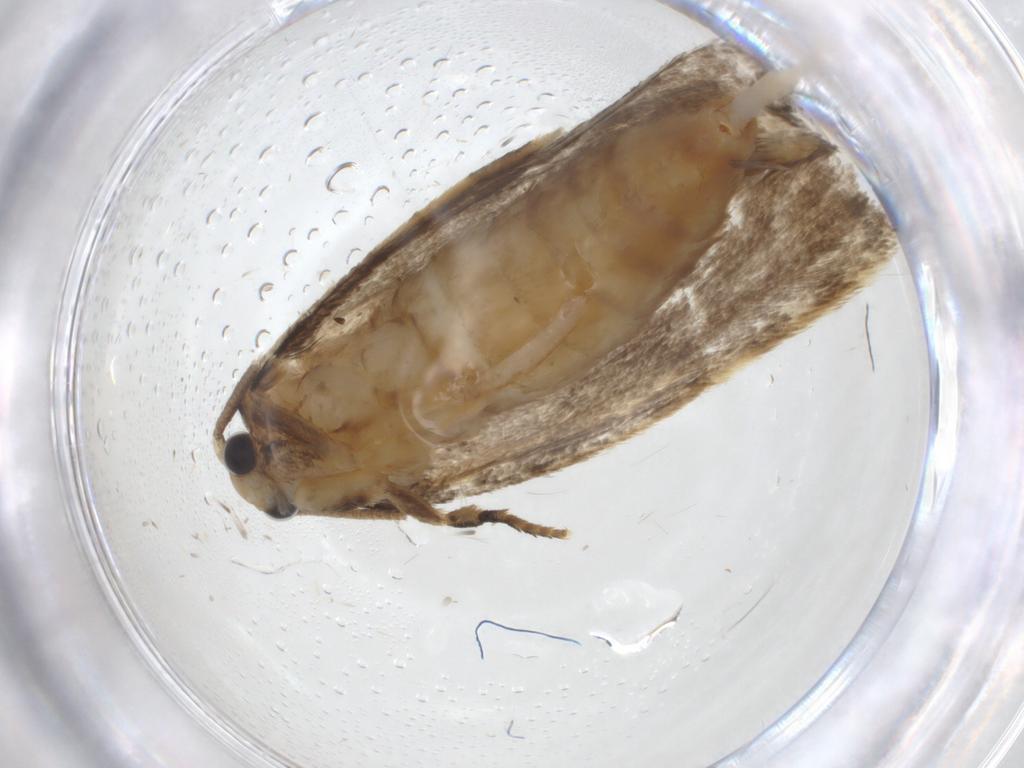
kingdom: Animalia
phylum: Arthropoda
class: Insecta
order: Lepidoptera
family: Tineidae
